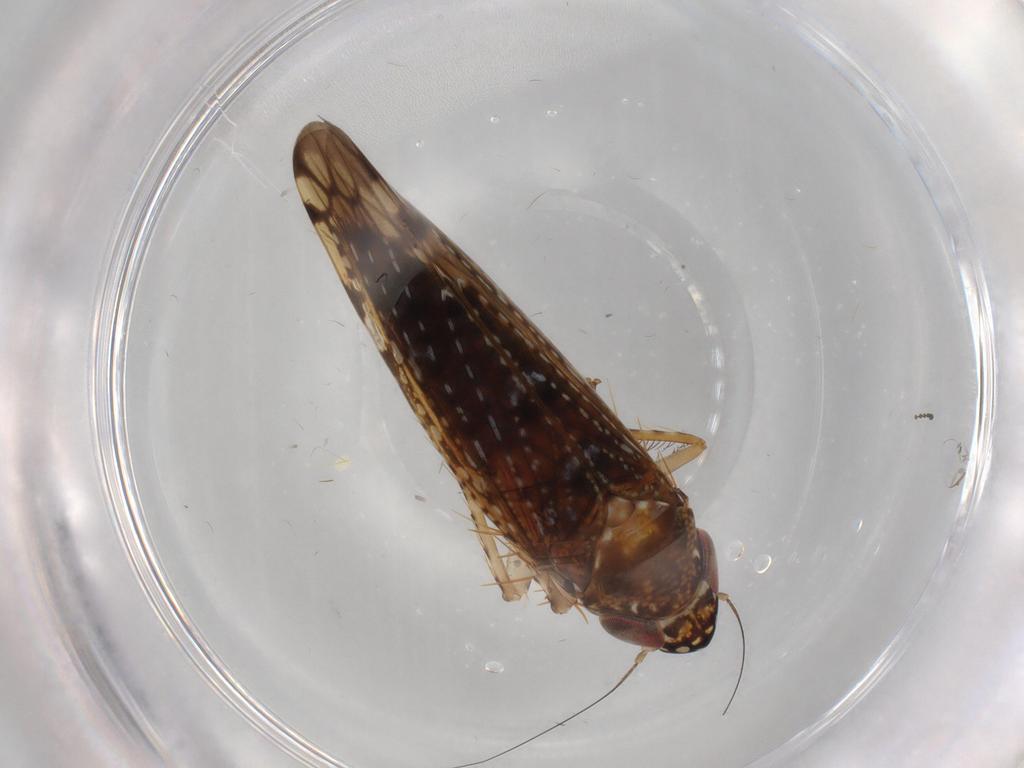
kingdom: Animalia
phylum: Arthropoda
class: Insecta
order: Hemiptera
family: Cicadellidae
